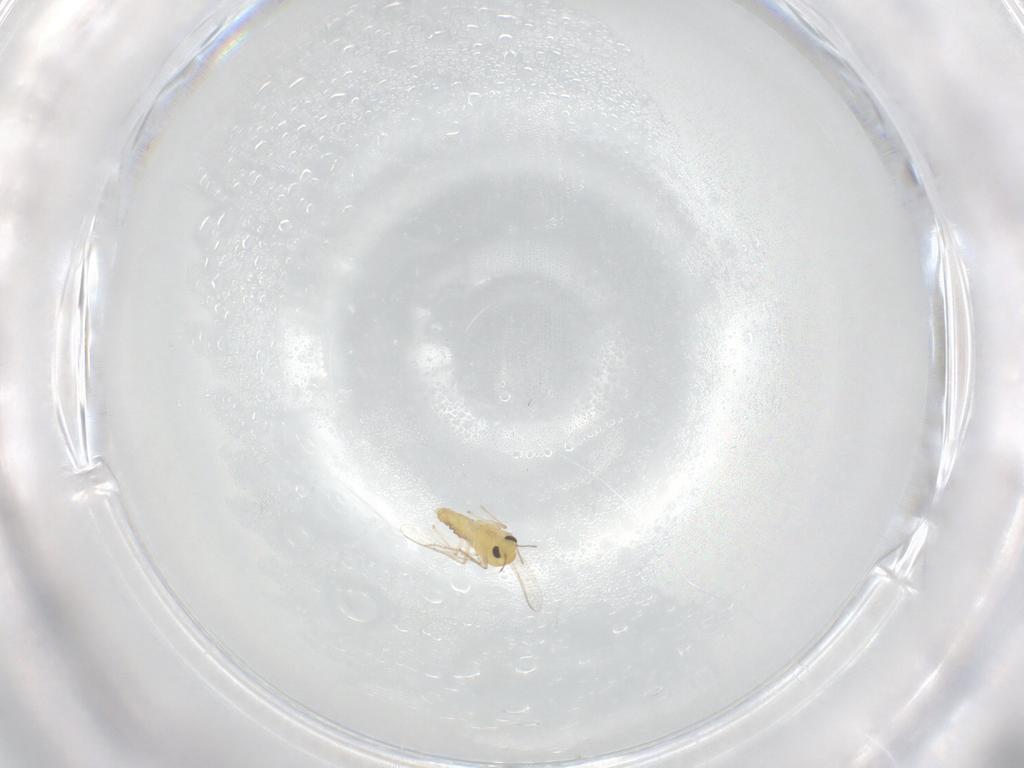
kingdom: Animalia
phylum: Arthropoda
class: Insecta
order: Diptera
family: Chironomidae
